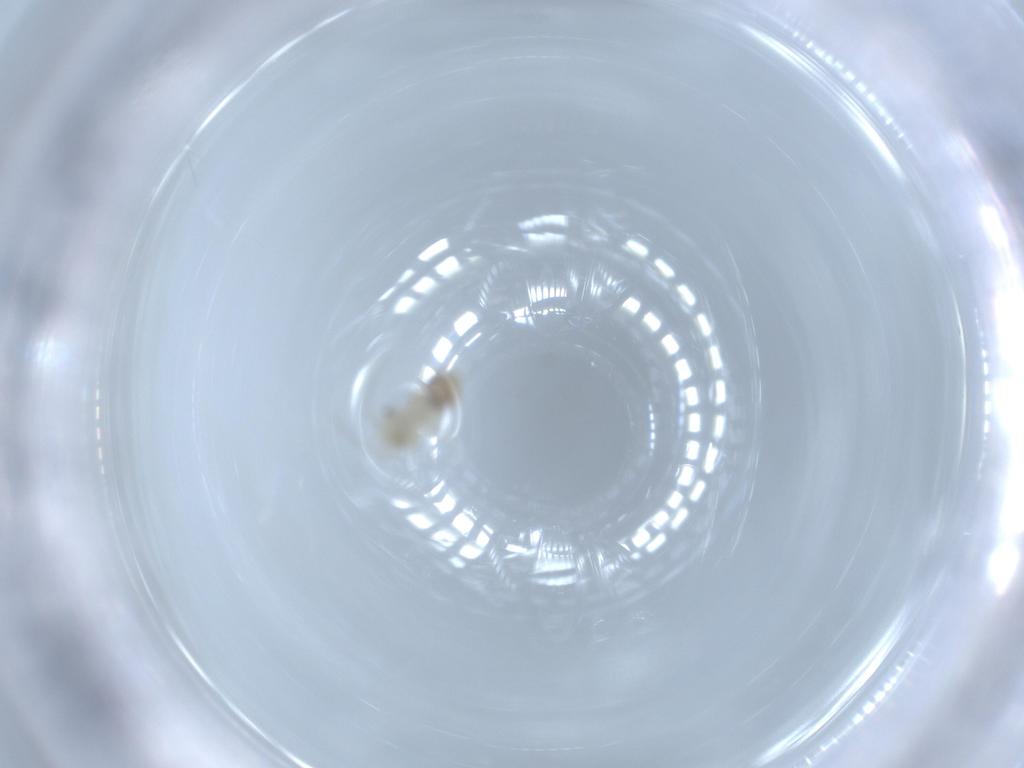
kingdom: Animalia
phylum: Arthropoda
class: Insecta
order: Psocodea
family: Caeciliusidae
